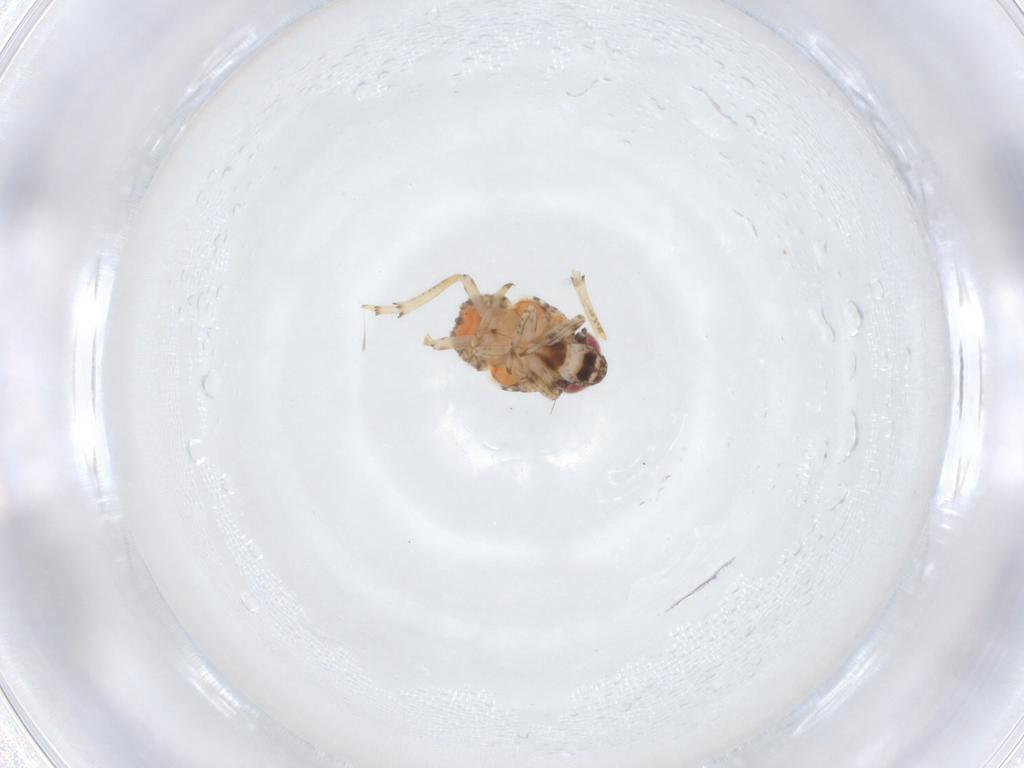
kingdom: Animalia
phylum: Arthropoda
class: Insecta
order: Hemiptera
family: Issidae
